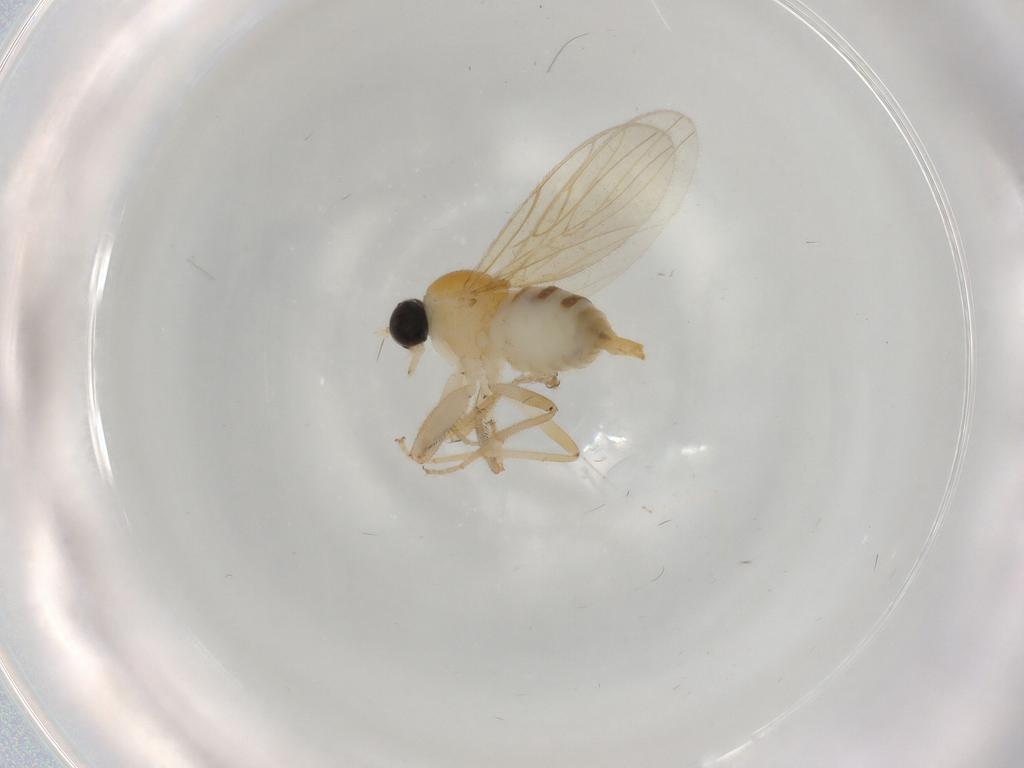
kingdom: Animalia
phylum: Arthropoda
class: Insecta
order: Diptera
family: Cecidomyiidae
